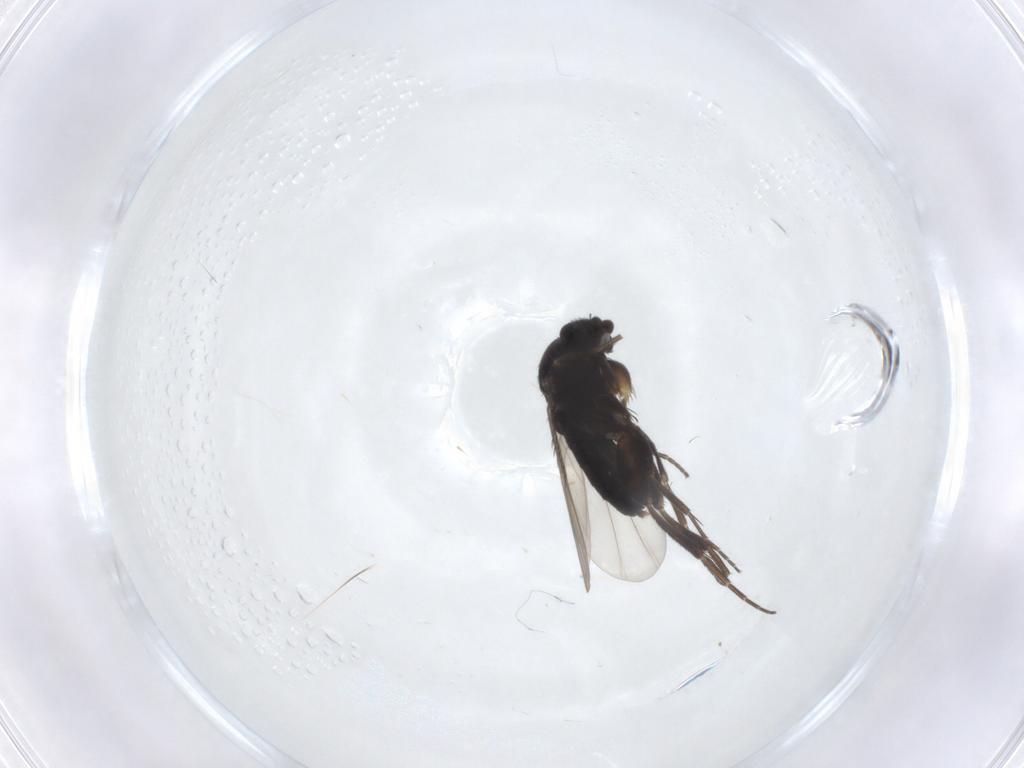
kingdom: Animalia
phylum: Arthropoda
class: Insecta
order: Diptera
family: Phoridae
